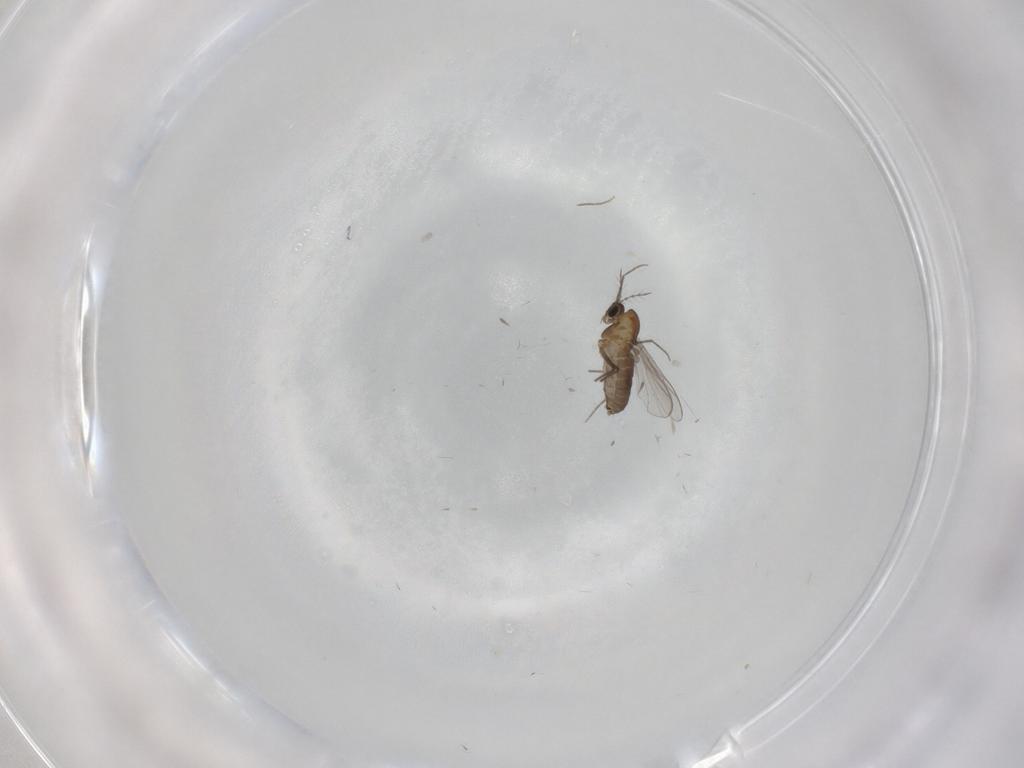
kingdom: Animalia
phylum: Arthropoda
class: Insecta
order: Diptera
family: Chironomidae
